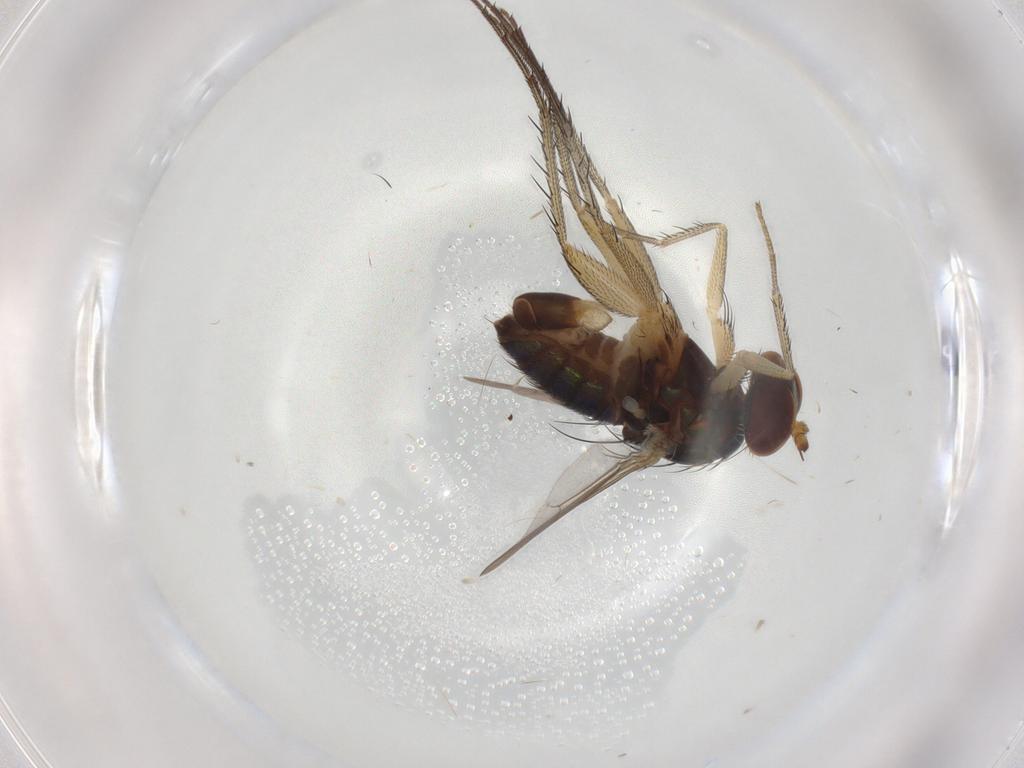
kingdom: Animalia
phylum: Arthropoda
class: Insecta
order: Diptera
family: Dolichopodidae
